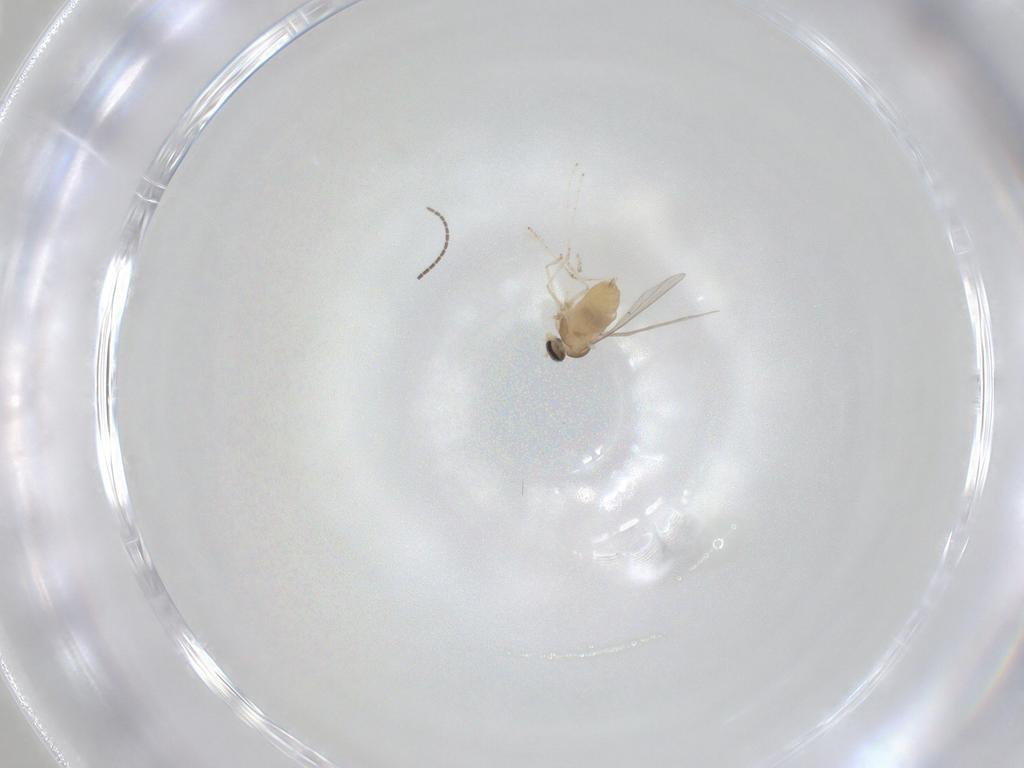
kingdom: Animalia
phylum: Arthropoda
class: Insecta
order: Diptera
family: Cecidomyiidae
